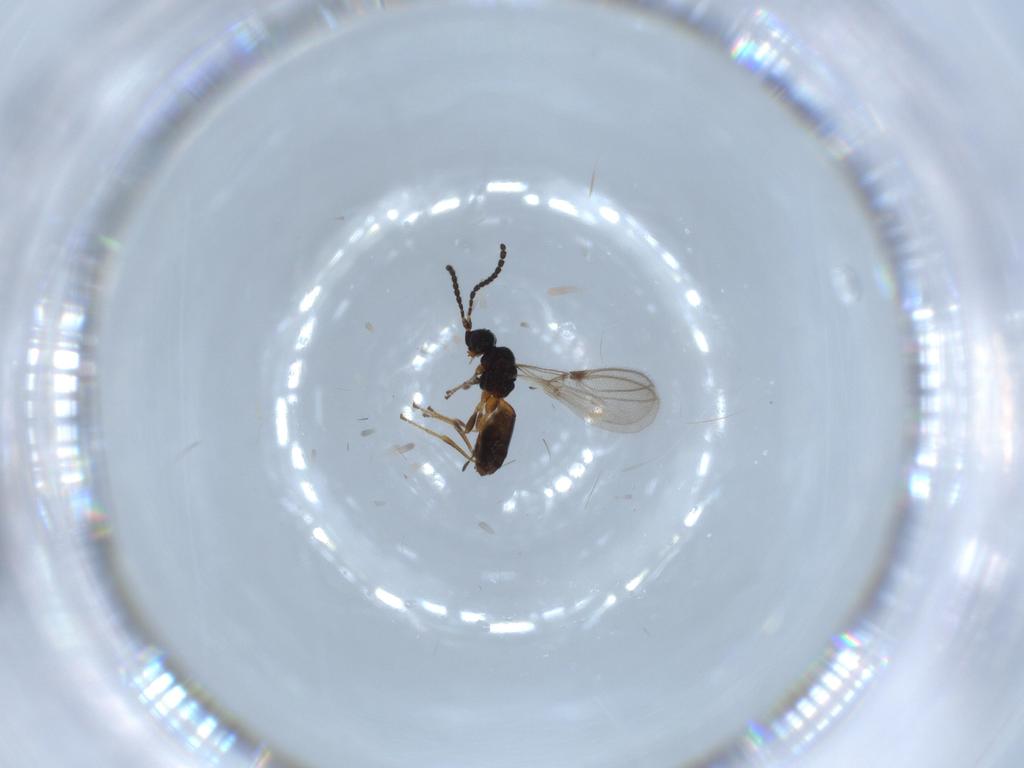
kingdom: Animalia
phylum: Arthropoda
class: Insecta
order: Hymenoptera
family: Braconidae
